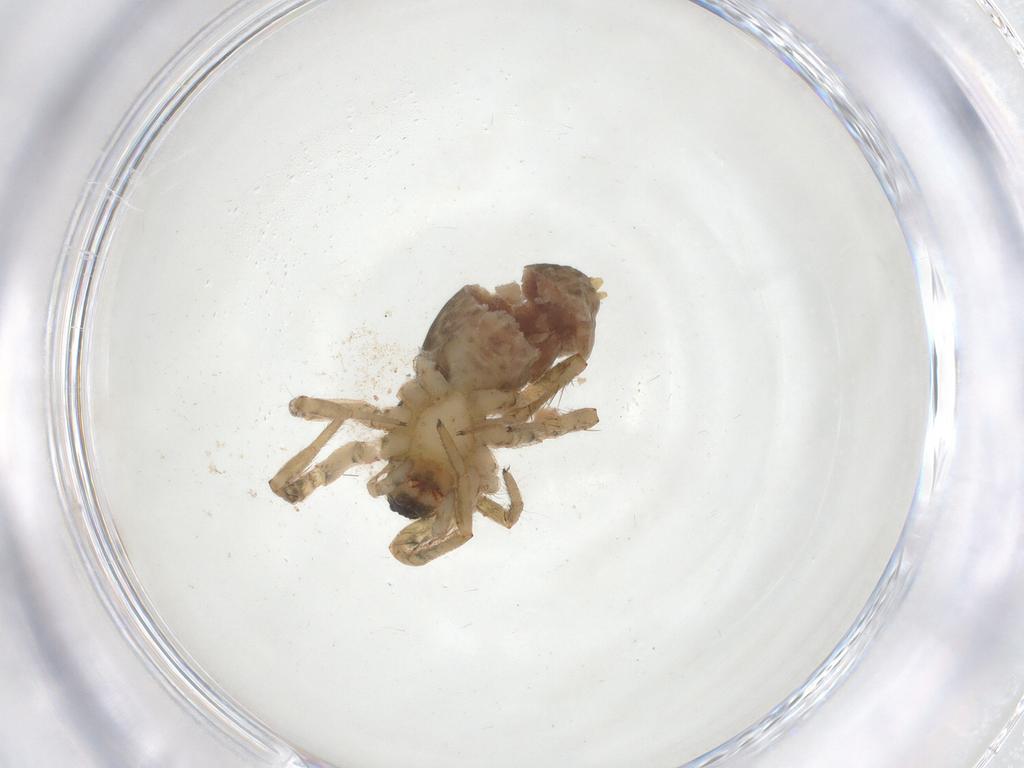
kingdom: Animalia
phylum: Arthropoda
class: Arachnida
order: Araneae
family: Anyphaenidae
